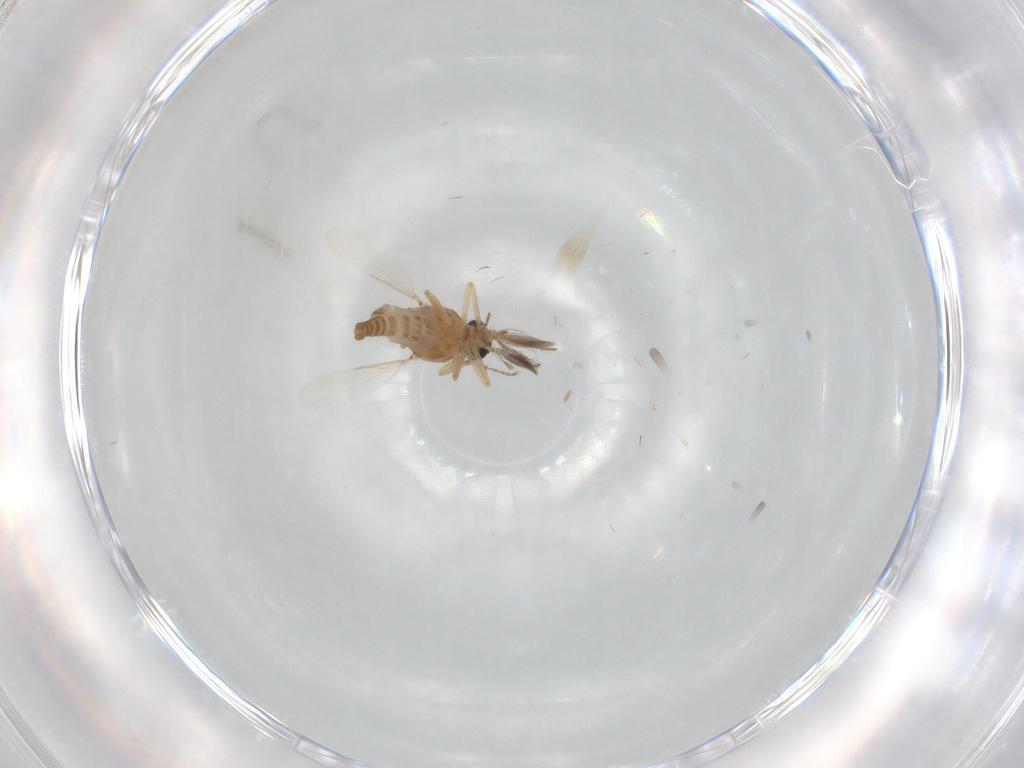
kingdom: Animalia
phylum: Arthropoda
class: Insecta
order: Diptera
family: Ceratopogonidae
